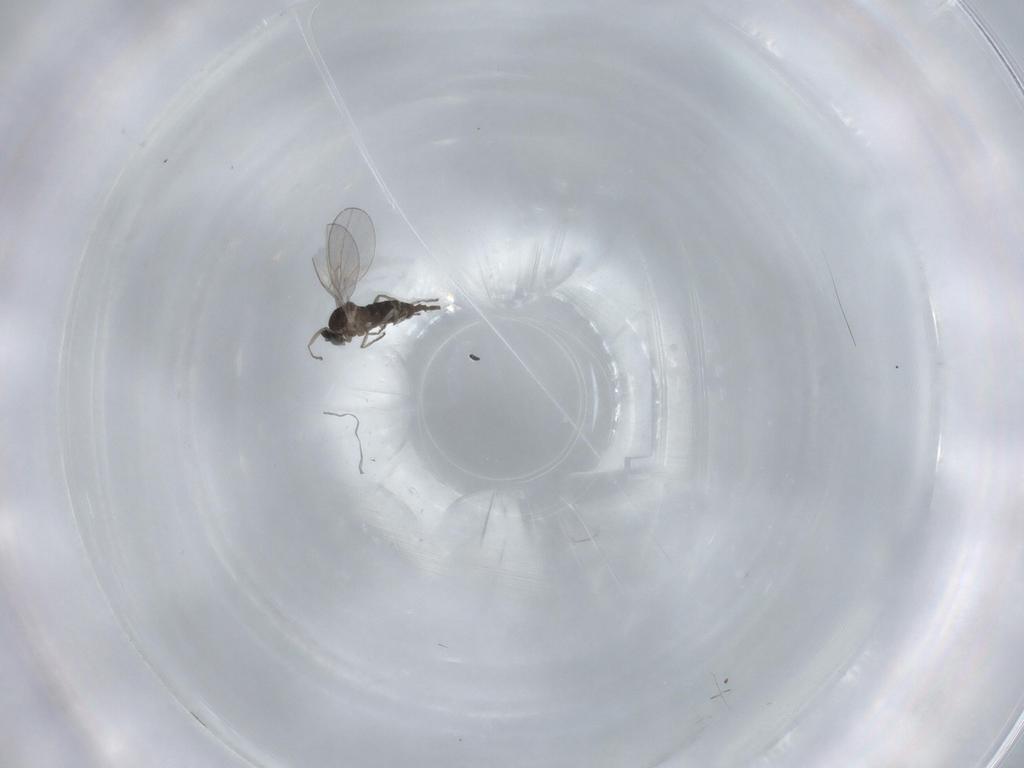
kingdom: Animalia
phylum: Arthropoda
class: Insecta
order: Diptera
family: Cecidomyiidae
